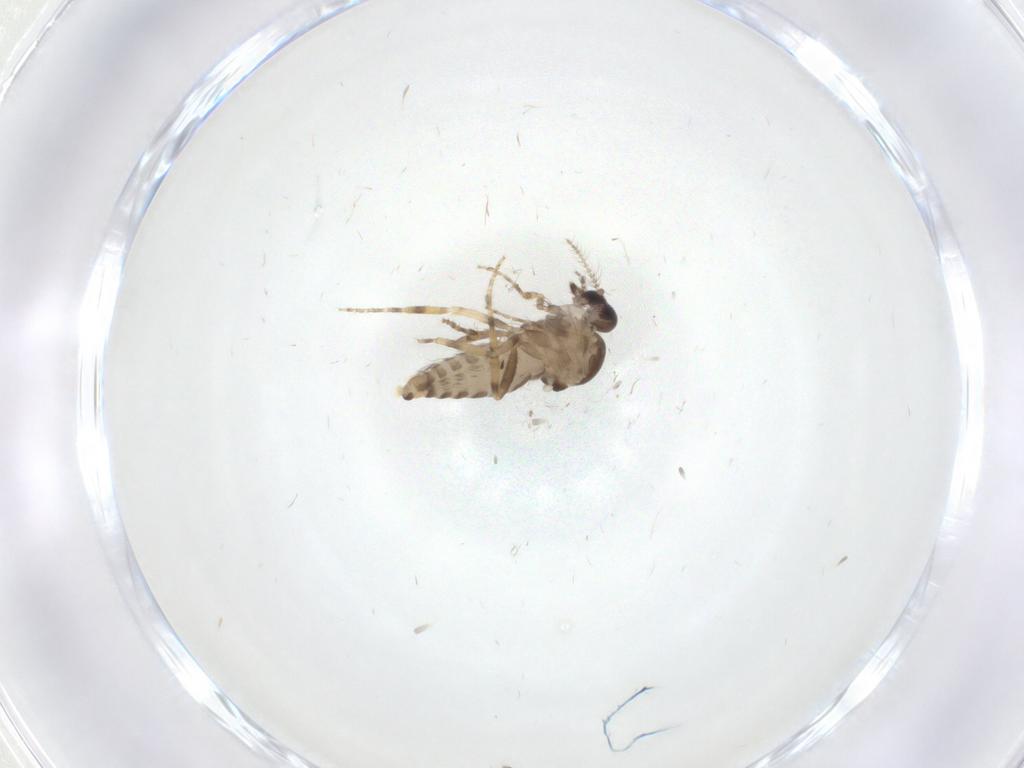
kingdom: Animalia
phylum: Arthropoda
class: Insecta
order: Diptera
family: Ceratopogonidae
